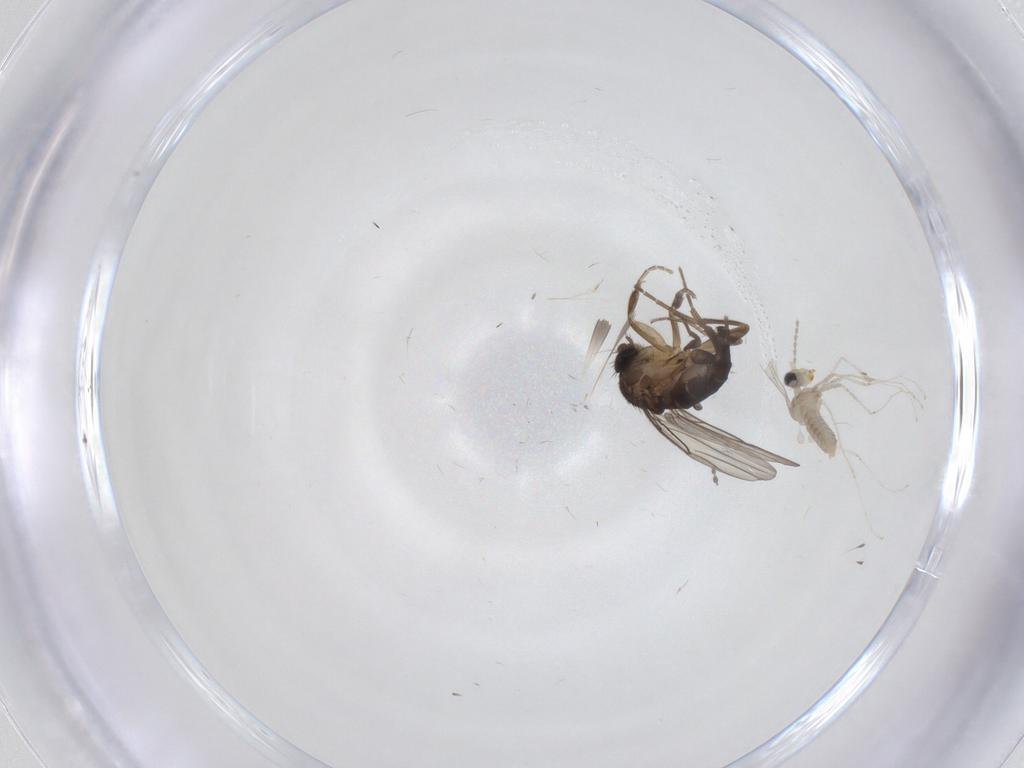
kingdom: Animalia
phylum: Arthropoda
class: Insecta
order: Diptera
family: Phoridae
